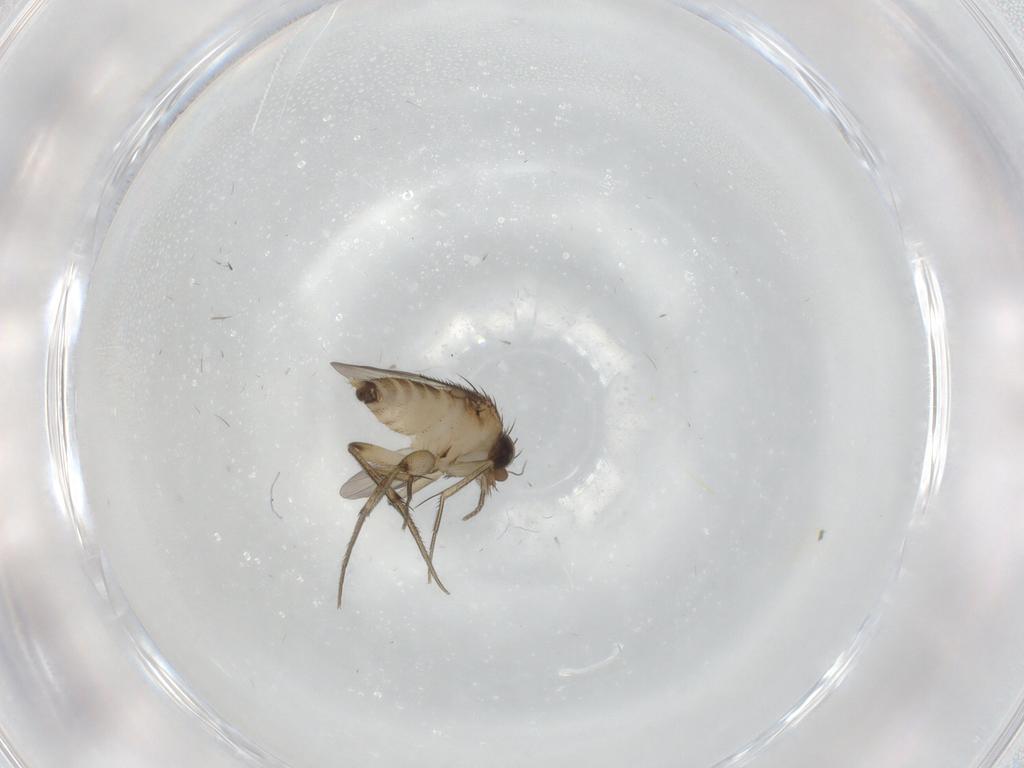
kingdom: Animalia
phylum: Arthropoda
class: Insecta
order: Diptera
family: Phoridae
